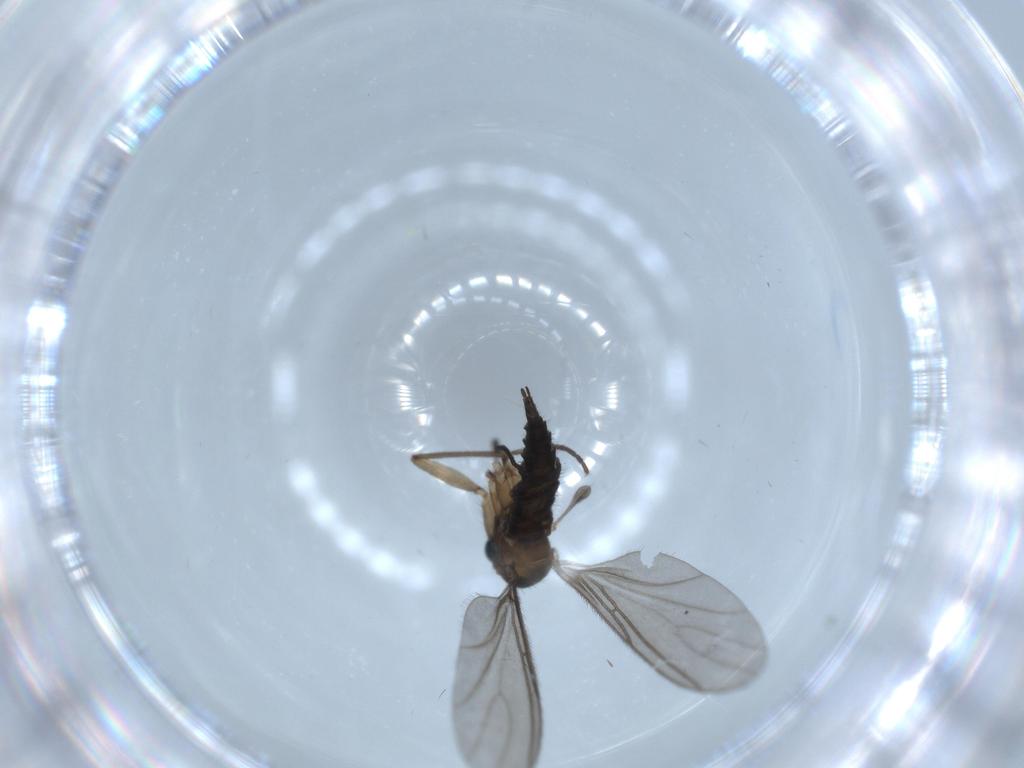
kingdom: Animalia
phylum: Arthropoda
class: Insecta
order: Diptera
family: Sciaridae
